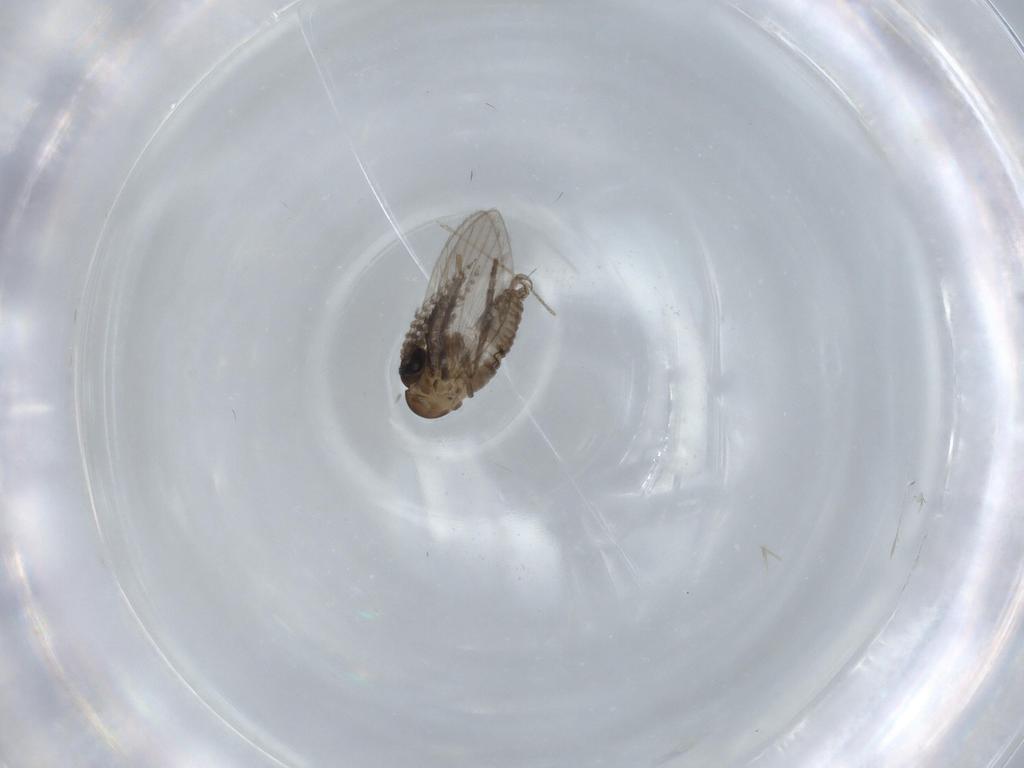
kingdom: Animalia
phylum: Arthropoda
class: Insecta
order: Diptera
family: Psychodidae
